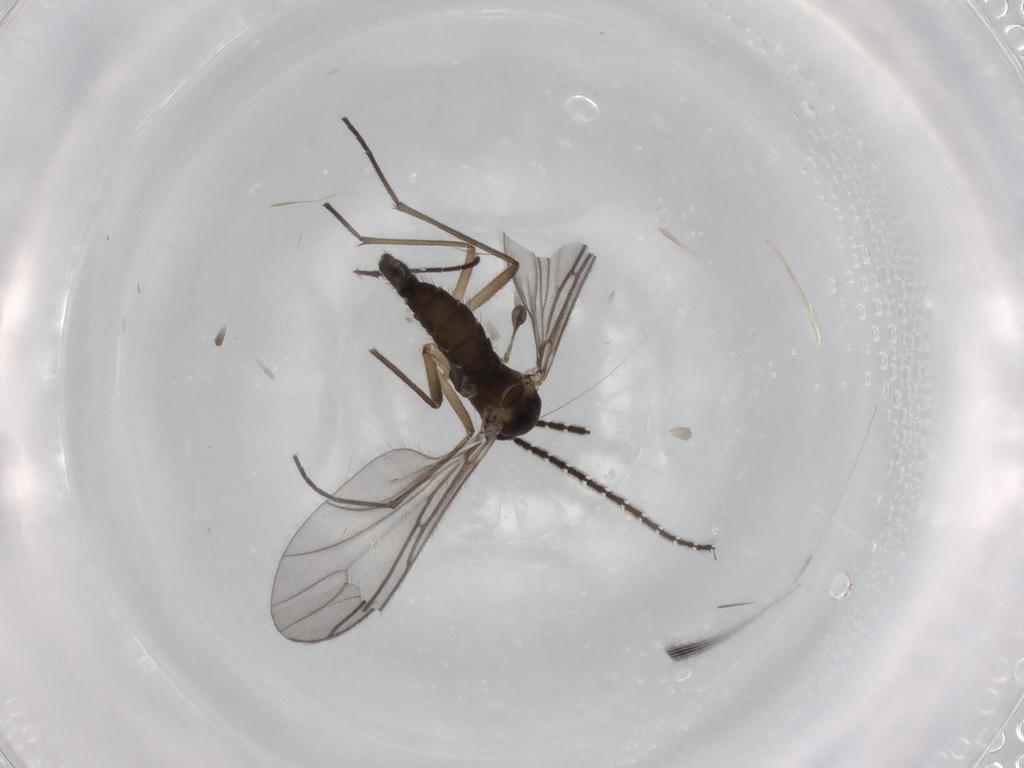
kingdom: Animalia
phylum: Arthropoda
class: Insecta
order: Diptera
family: Sciaridae
